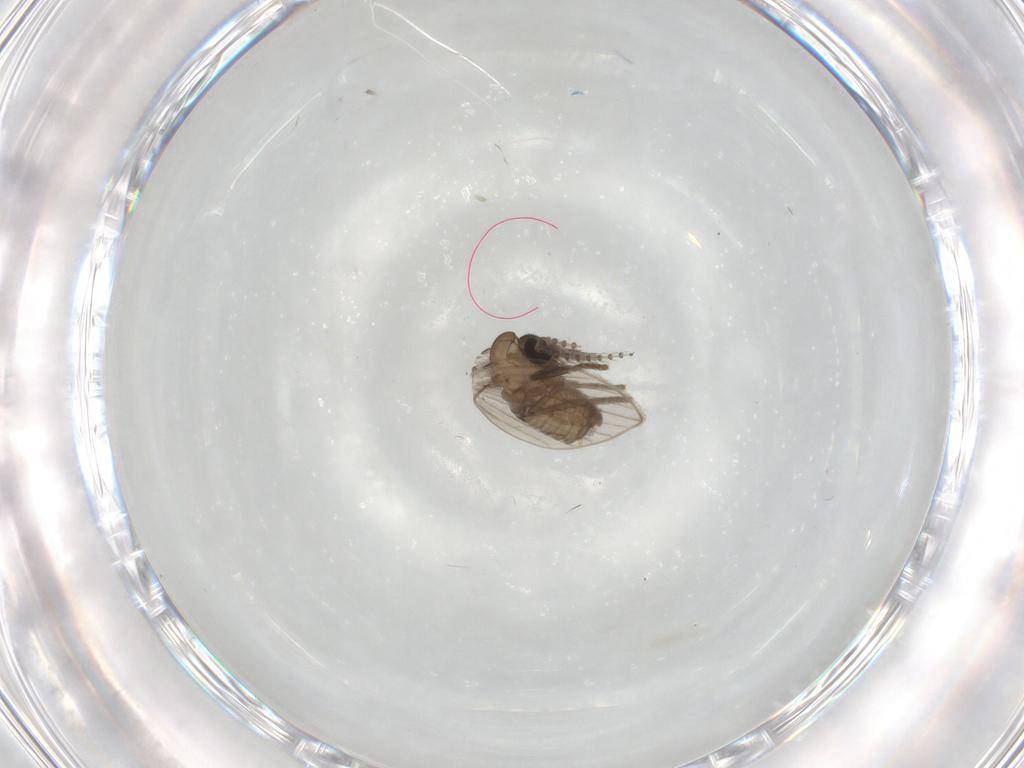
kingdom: Animalia
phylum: Arthropoda
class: Insecta
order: Diptera
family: Psychodidae
